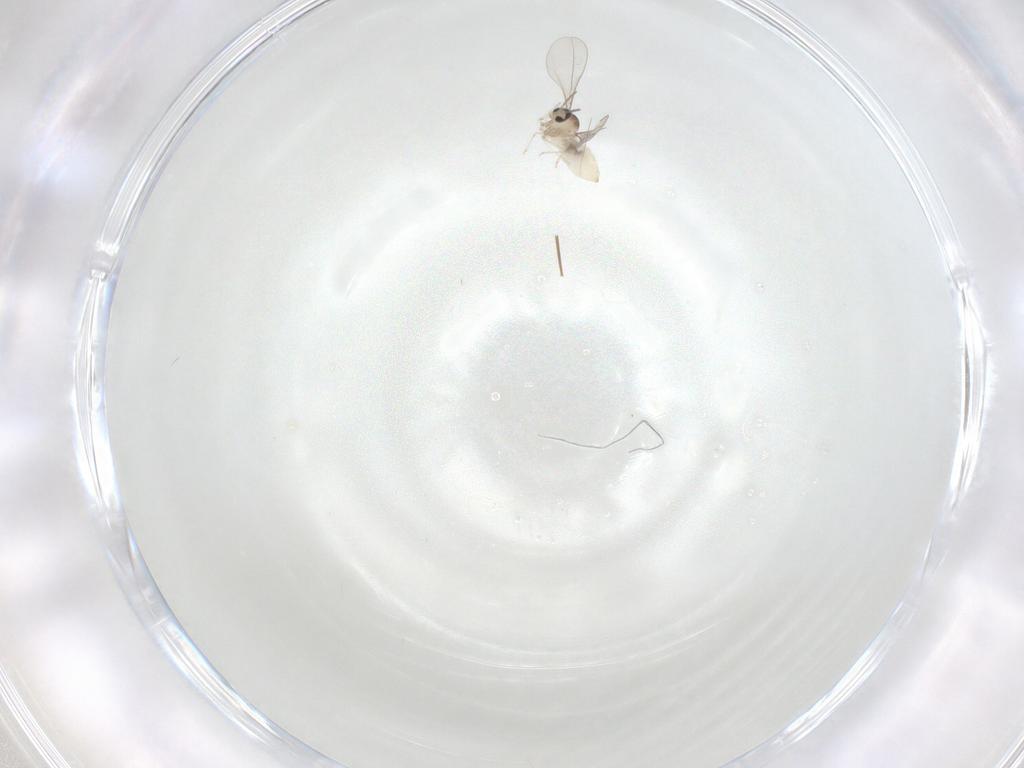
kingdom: Animalia
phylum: Arthropoda
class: Insecta
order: Diptera
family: Cecidomyiidae
